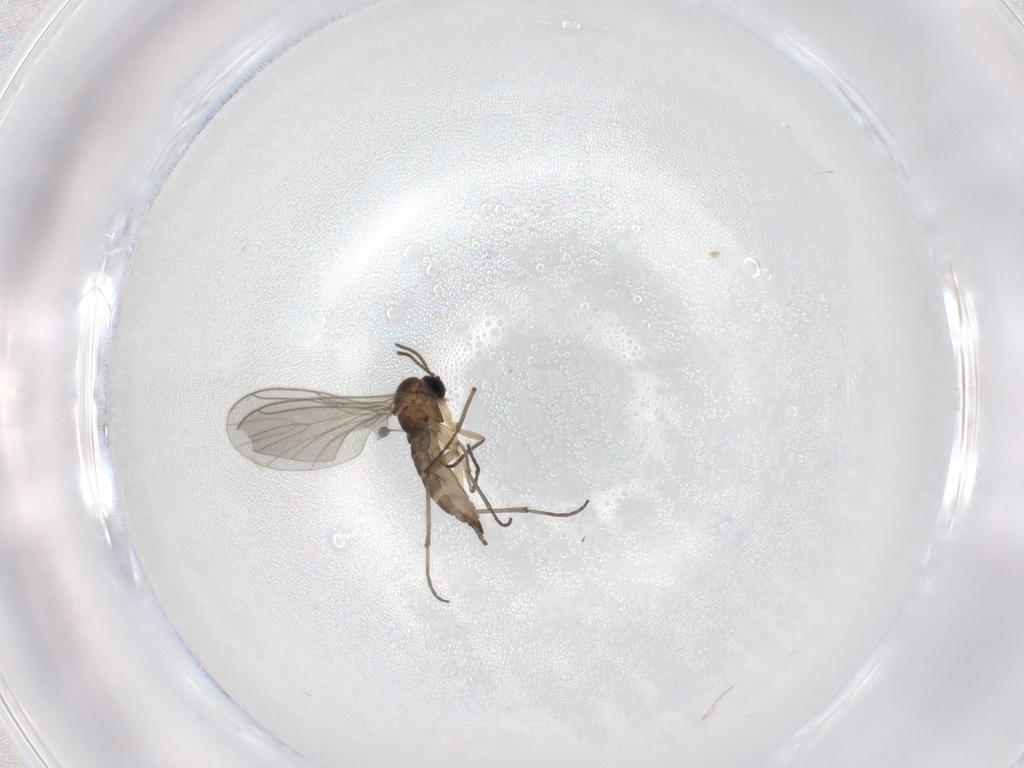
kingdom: Animalia
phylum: Arthropoda
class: Insecta
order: Diptera
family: Sciaridae
